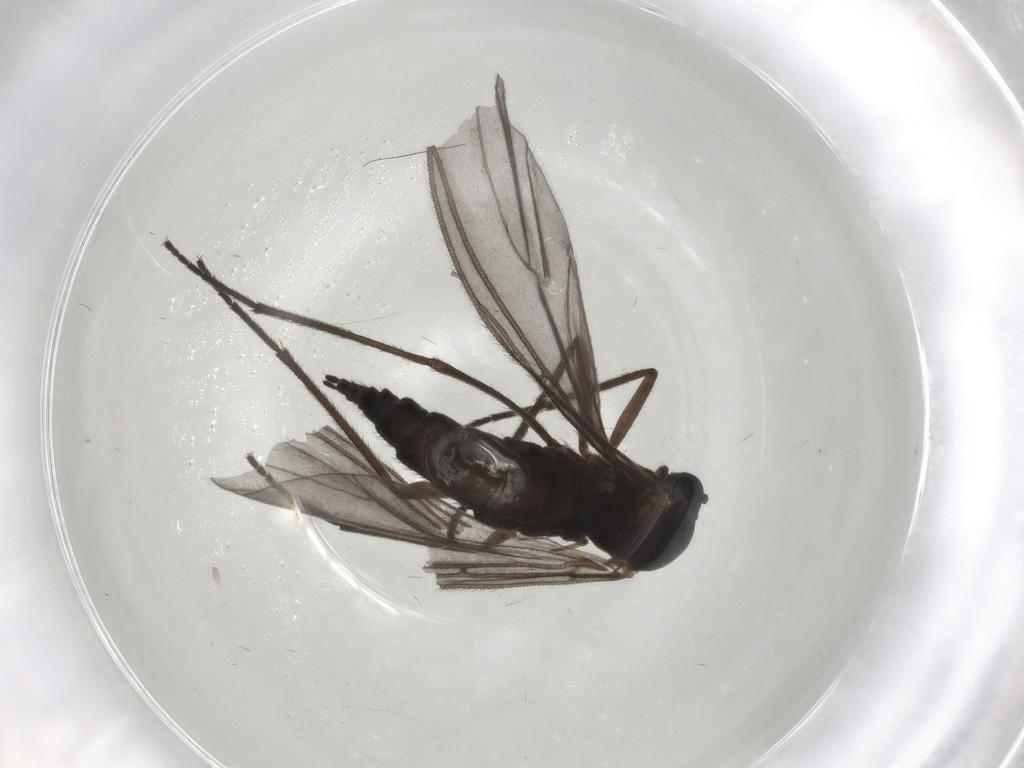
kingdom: Animalia
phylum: Arthropoda
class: Insecta
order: Diptera
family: Sciaridae
